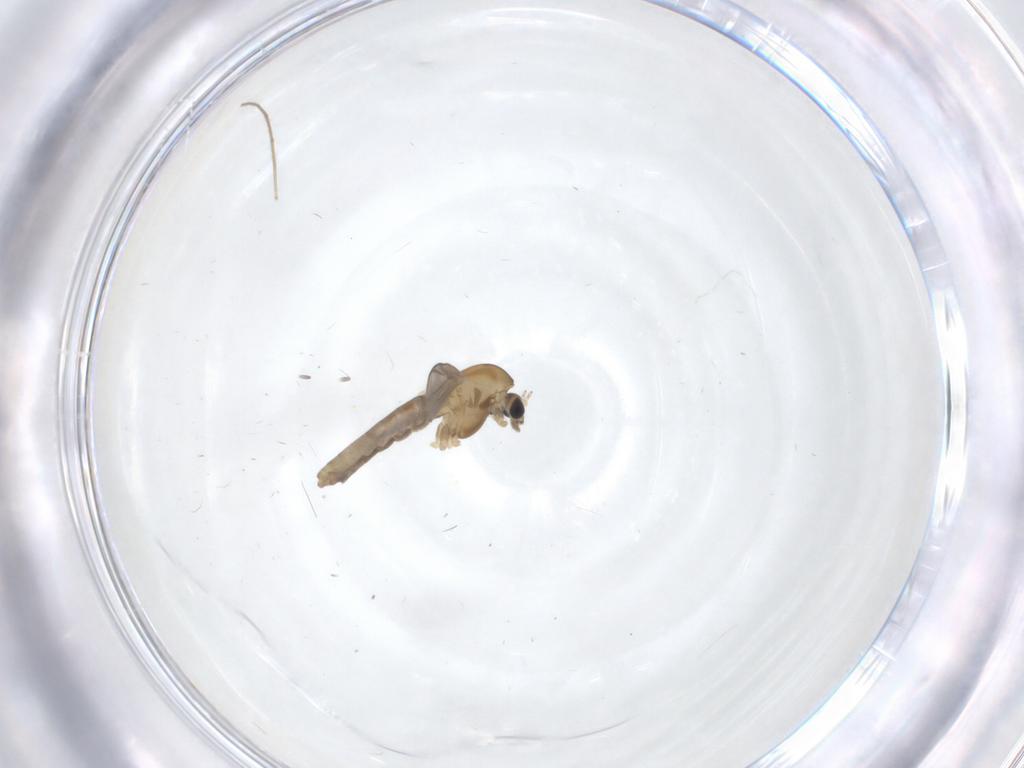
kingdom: Animalia
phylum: Arthropoda
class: Insecta
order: Diptera
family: Chironomidae
